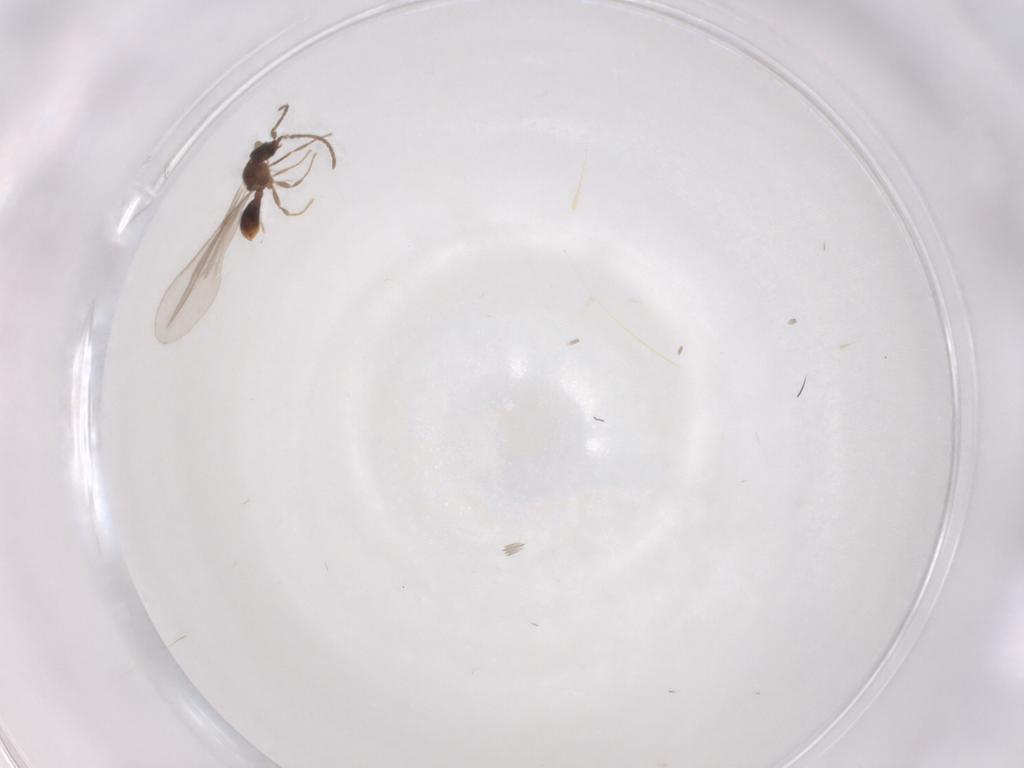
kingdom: Animalia
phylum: Arthropoda
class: Insecta
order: Hymenoptera
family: Formicidae
